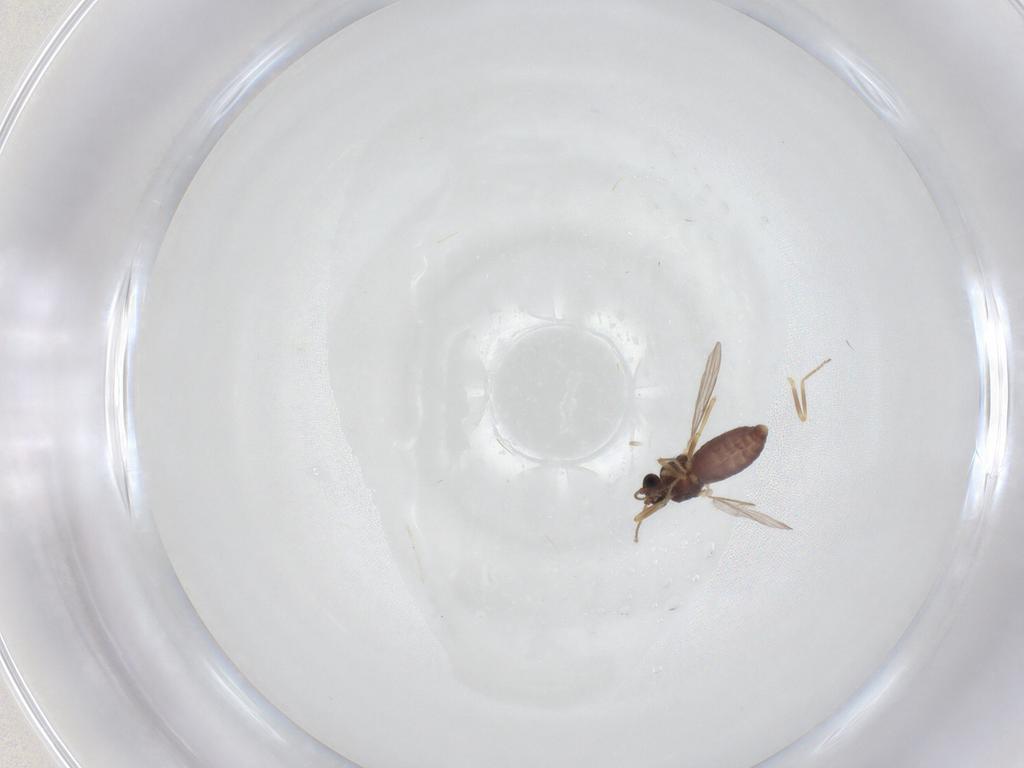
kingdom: Animalia
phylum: Arthropoda
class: Insecta
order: Diptera
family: Ceratopogonidae
